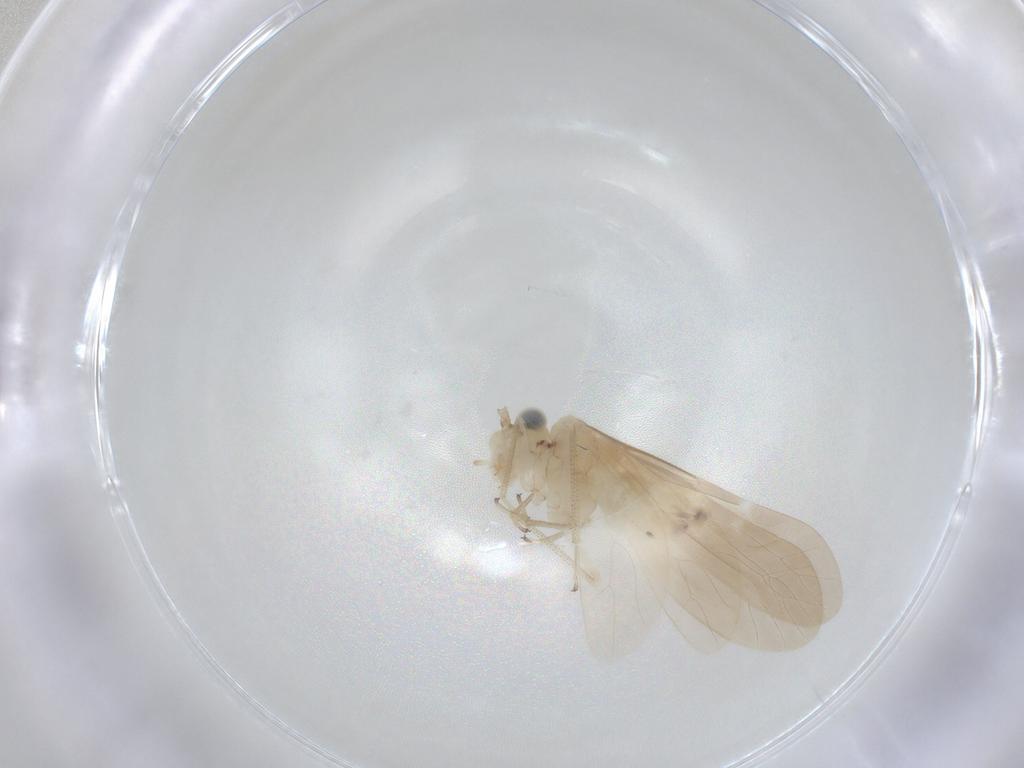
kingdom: Animalia
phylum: Arthropoda
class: Insecta
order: Psocodea
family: Caeciliusidae
